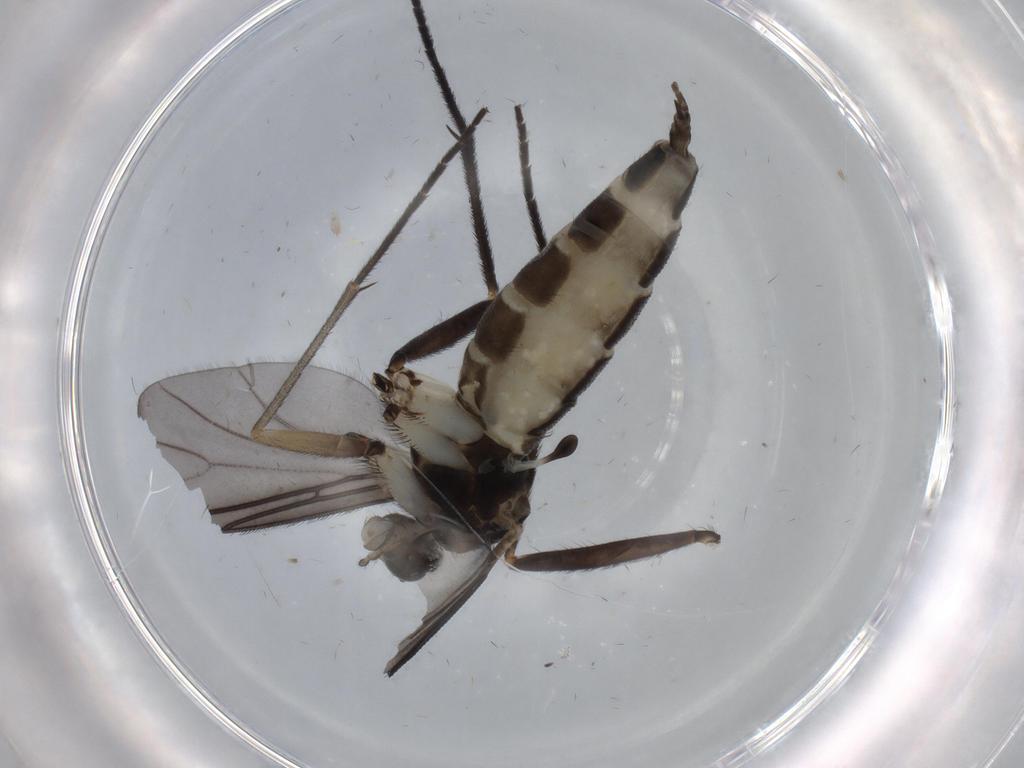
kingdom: Animalia
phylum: Arthropoda
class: Insecta
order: Diptera
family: Sciaridae
